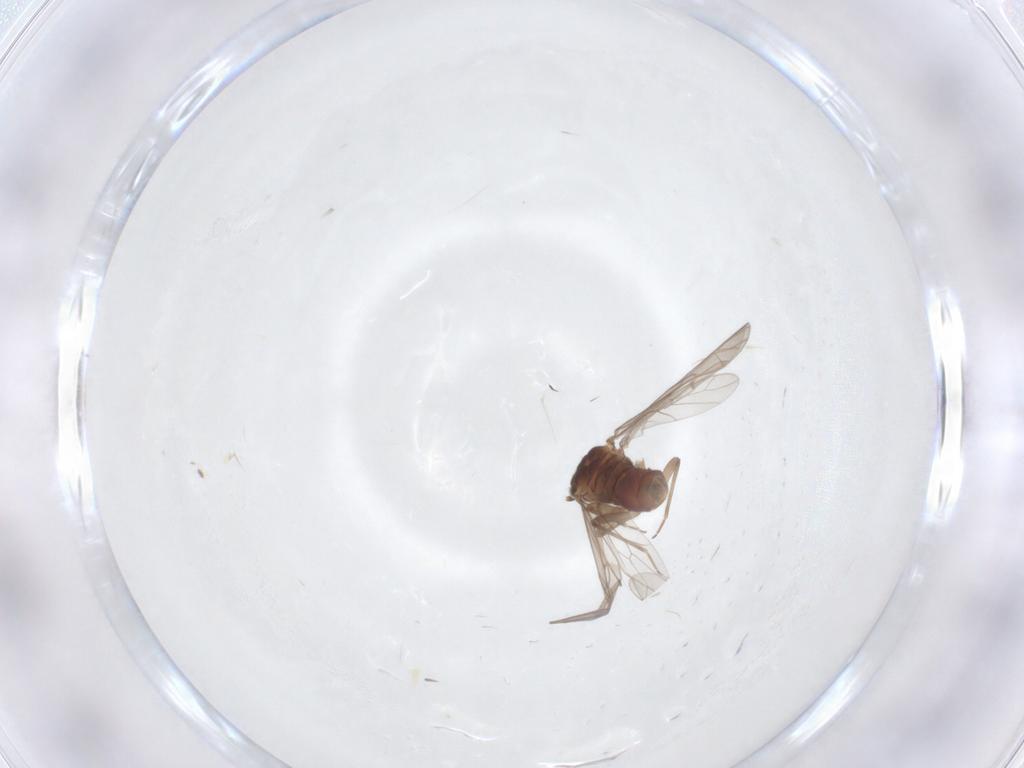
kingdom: Animalia
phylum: Arthropoda
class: Insecta
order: Psocodea
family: Ectopsocidae
